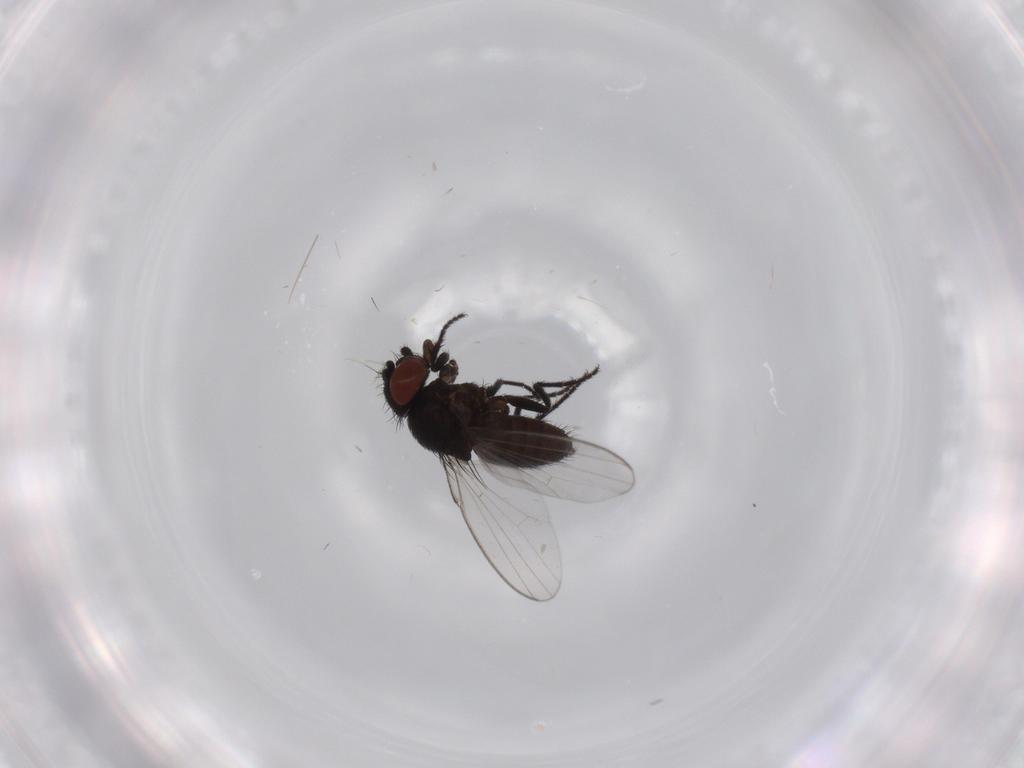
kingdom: Animalia
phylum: Arthropoda
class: Insecta
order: Diptera
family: Milichiidae
